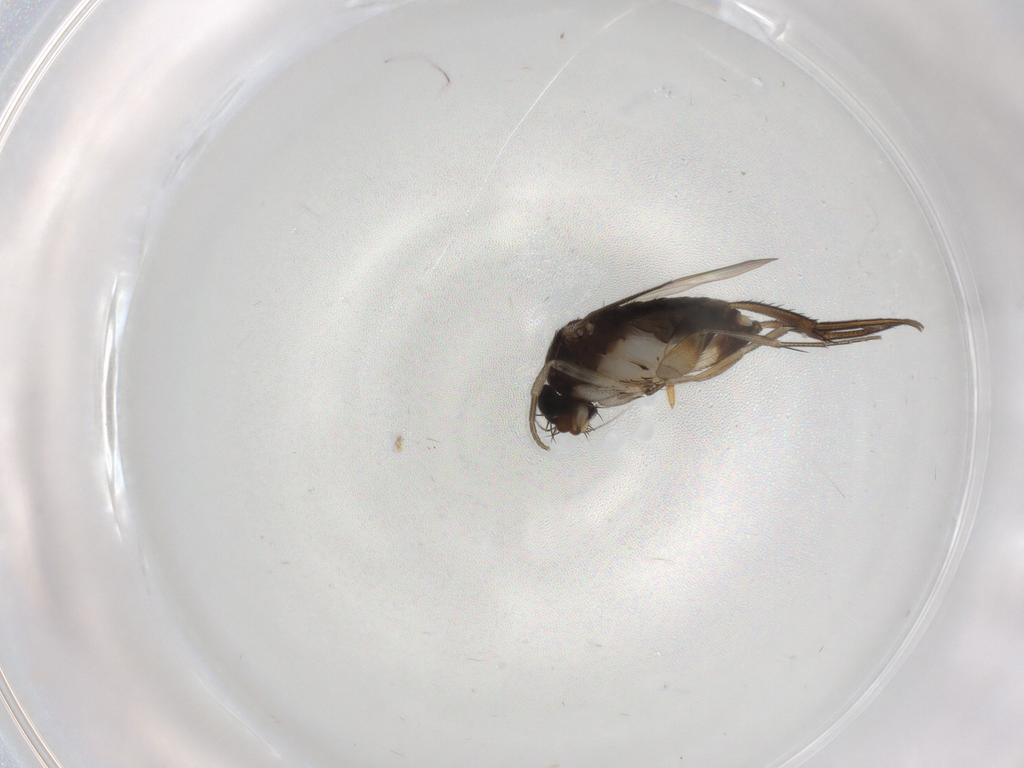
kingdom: Animalia
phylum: Arthropoda
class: Insecta
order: Diptera
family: Phoridae
